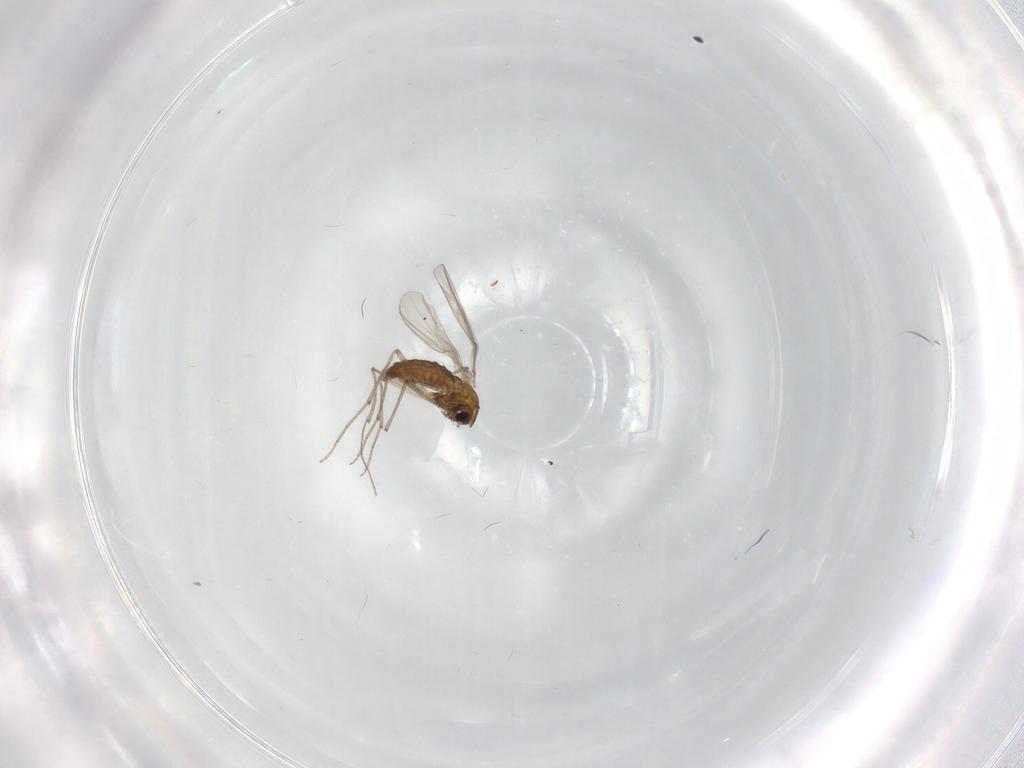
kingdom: Animalia
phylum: Arthropoda
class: Insecta
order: Diptera
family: Chironomidae
